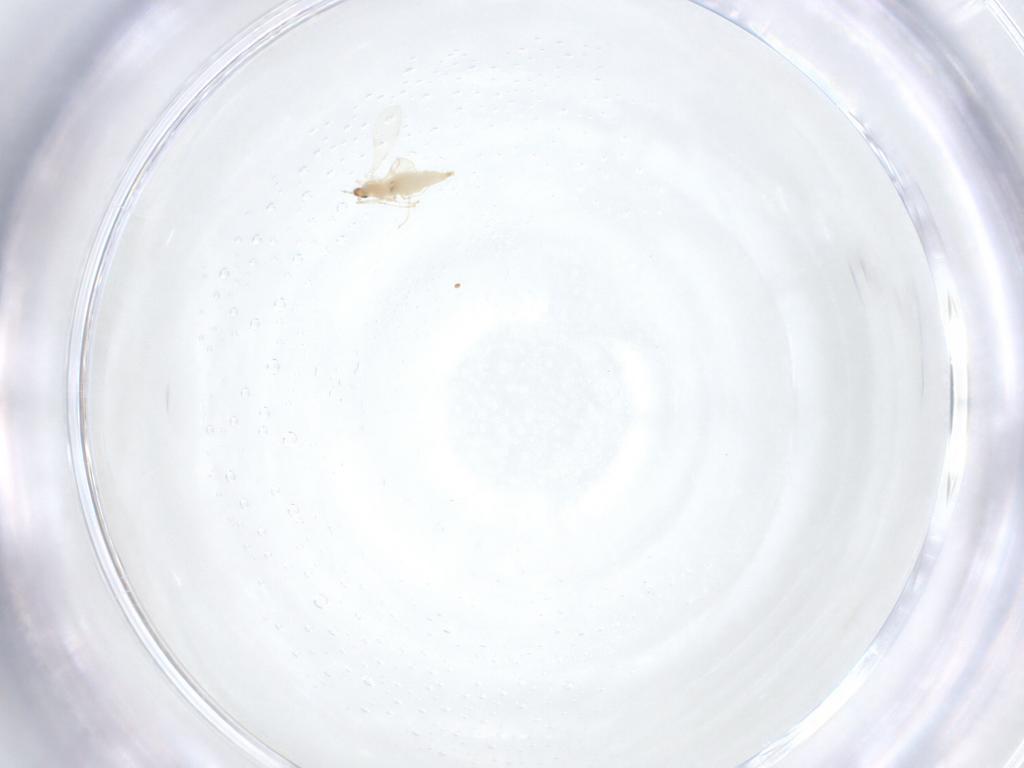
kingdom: Animalia
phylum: Arthropoda
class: Insecta
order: Diptera
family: Cecidomyiidae
